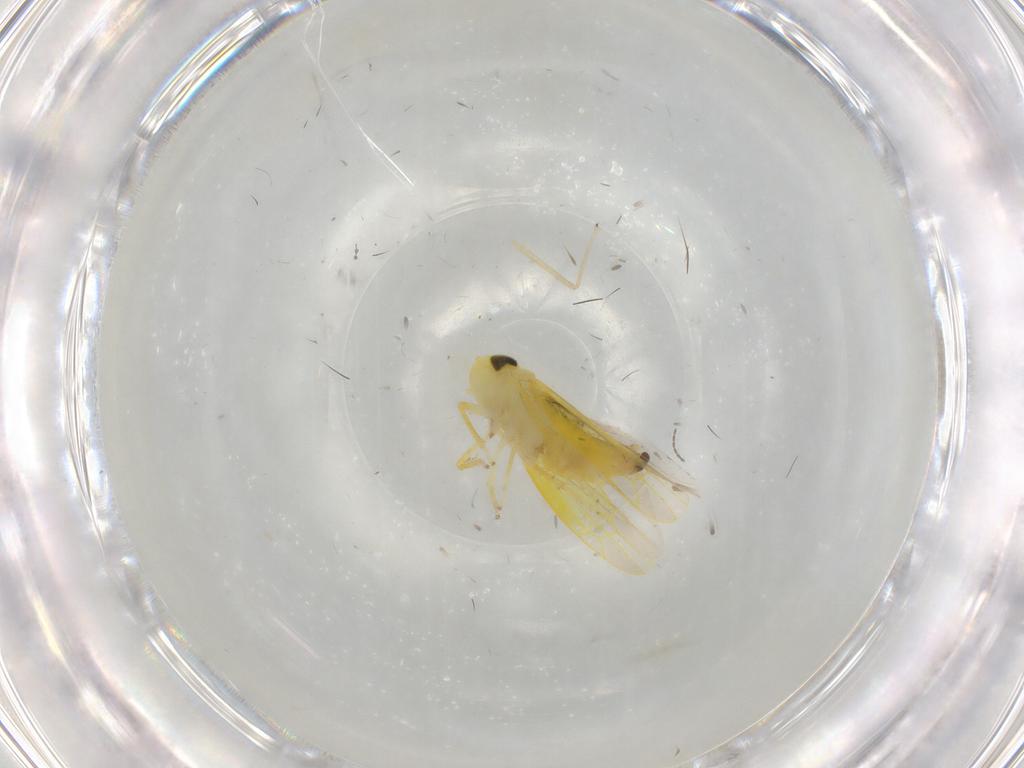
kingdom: Animalia
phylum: Arthropoda
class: Insecta
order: Hemiptera
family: Cicadellidae
